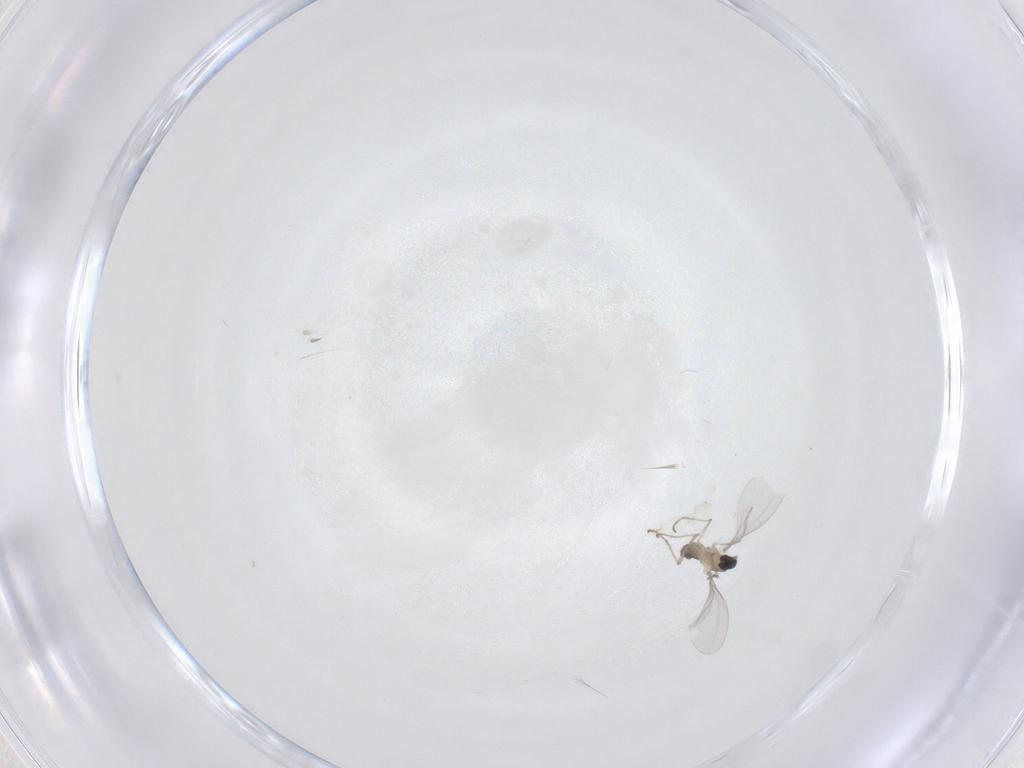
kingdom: Animalia
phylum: Arthropoda
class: Insecta
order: Diptera
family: Cecidomyiidae
